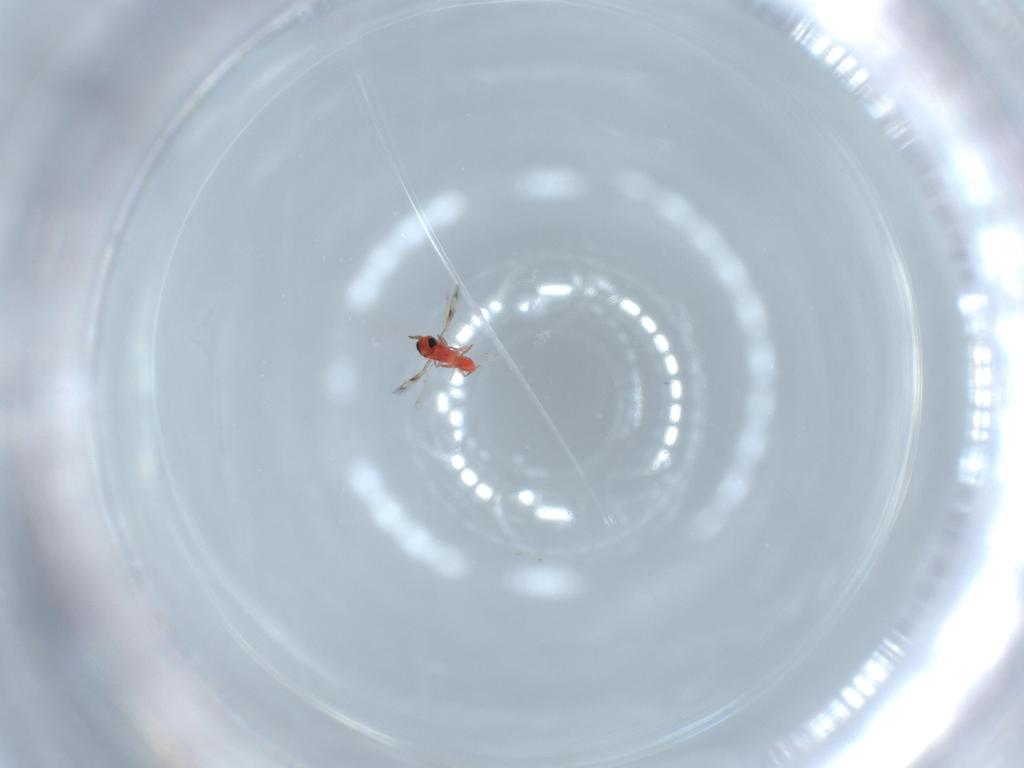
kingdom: Animalia
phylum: Arthropoda
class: Insecta
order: Hymenoptera
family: Trichogrammatidae
